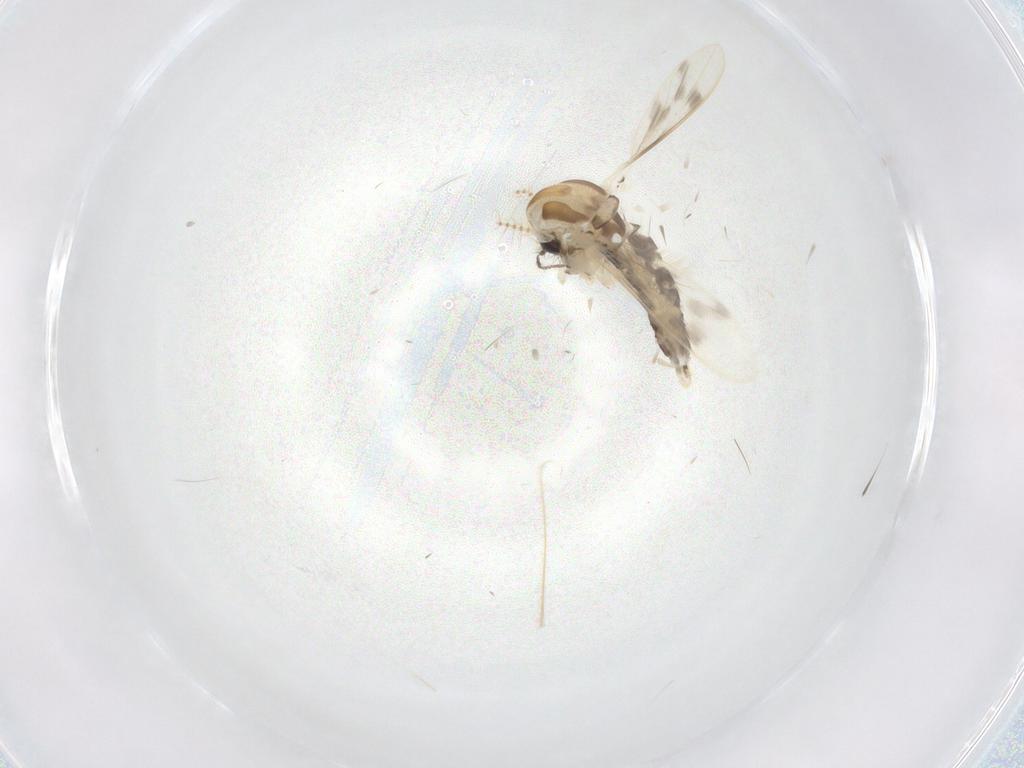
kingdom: Animalia
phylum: Arthropoda
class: Insecta
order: Diptera
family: Corethrellidae
